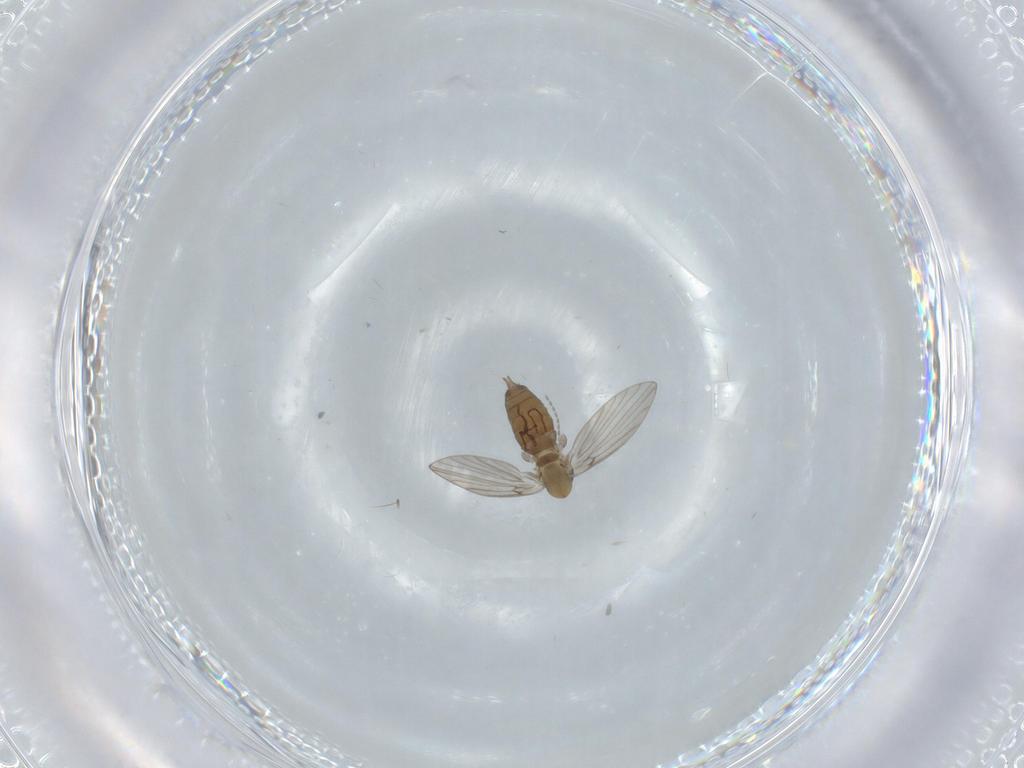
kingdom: Animalia
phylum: Arthropoda
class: Insecta
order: Diptera
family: Psychodidae
